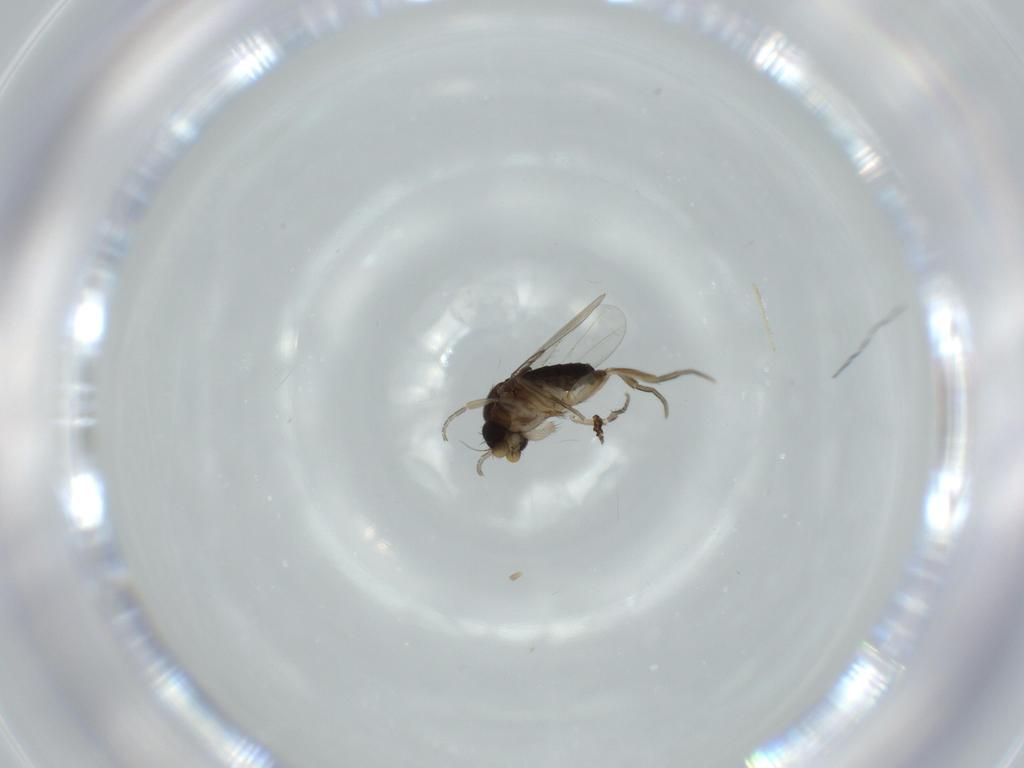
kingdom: Animalia
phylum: Arthropoda
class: Insecta
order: Diptera
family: Phoridae
